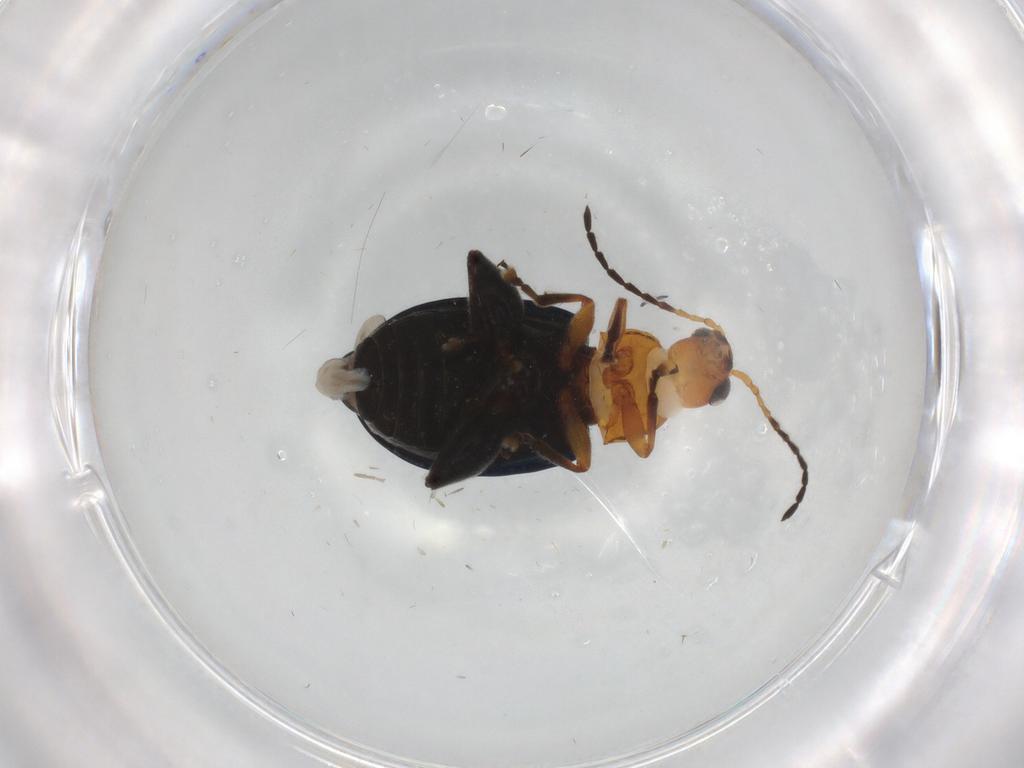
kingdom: Animalia
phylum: Arthropoda
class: Insecta
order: Coleoptera
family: Chrysomelidae
